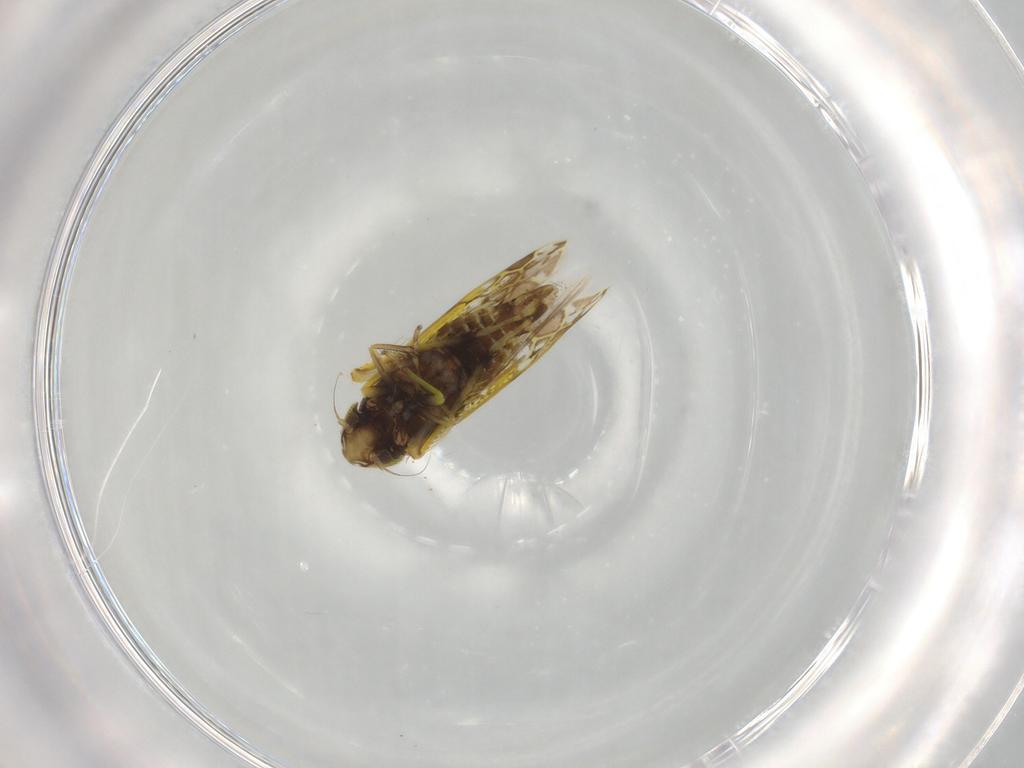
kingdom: Animalia
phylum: Arthropoda
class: Insecta
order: Hemiptera
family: Cicadellidae
